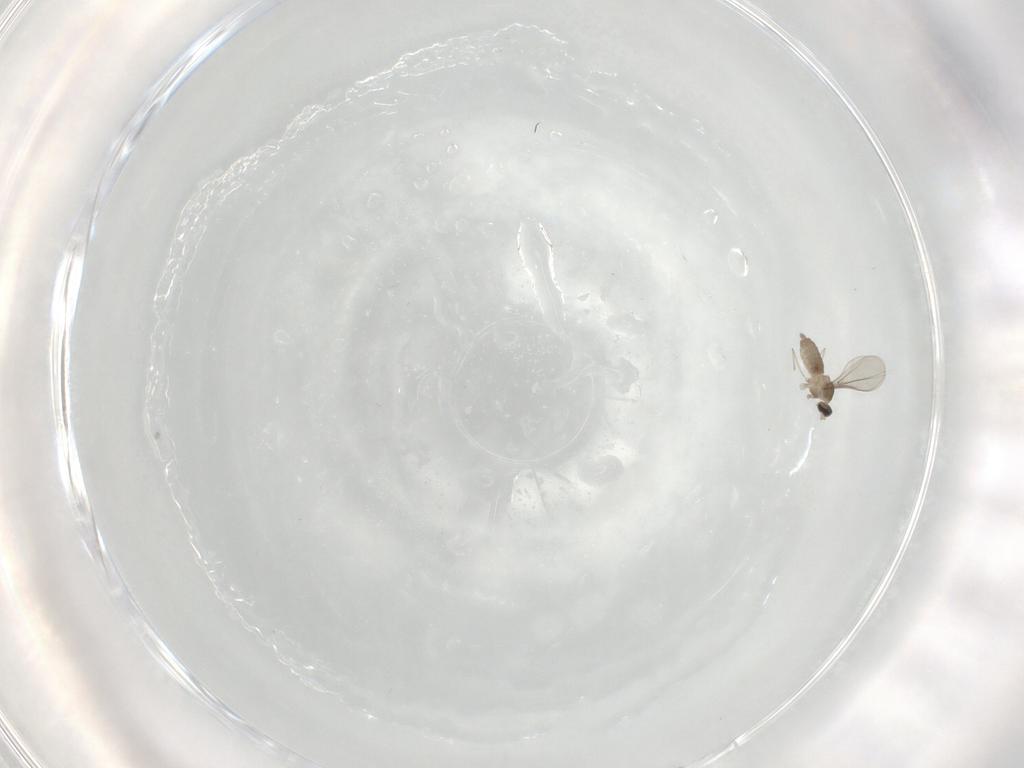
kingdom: Animalia
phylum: Arthropoda
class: Insecta
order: Diptera
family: Cecidomyiidae
